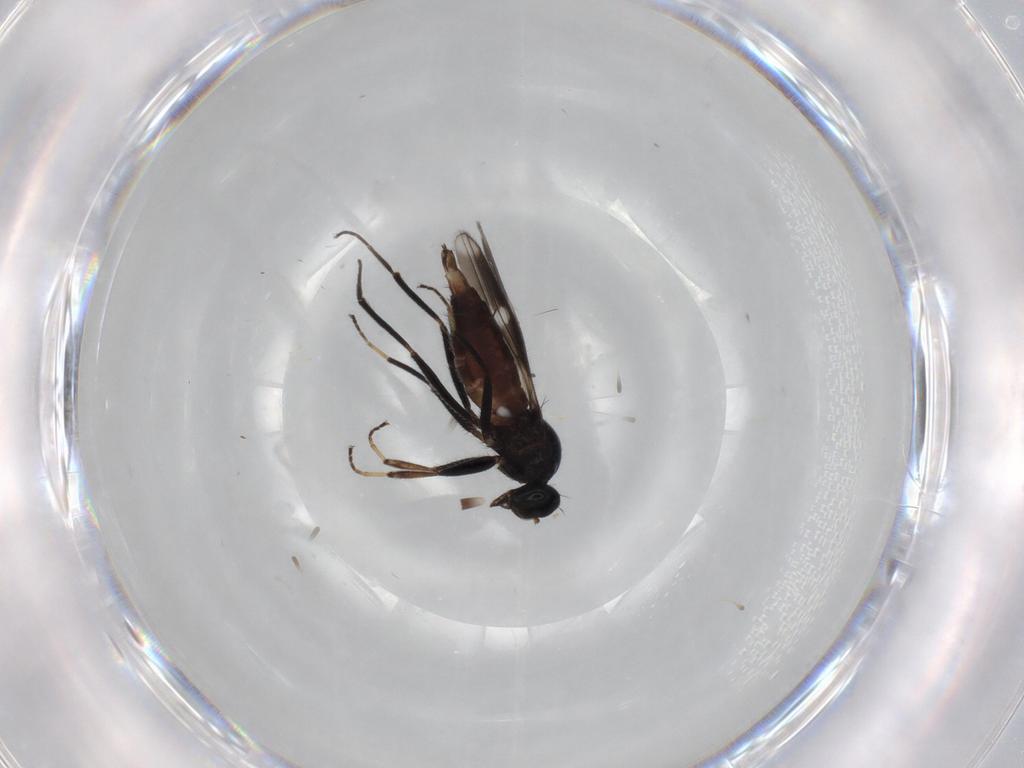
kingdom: Animalia
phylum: Arthropoda
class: Insecta
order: Diptera
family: Hybotidae
